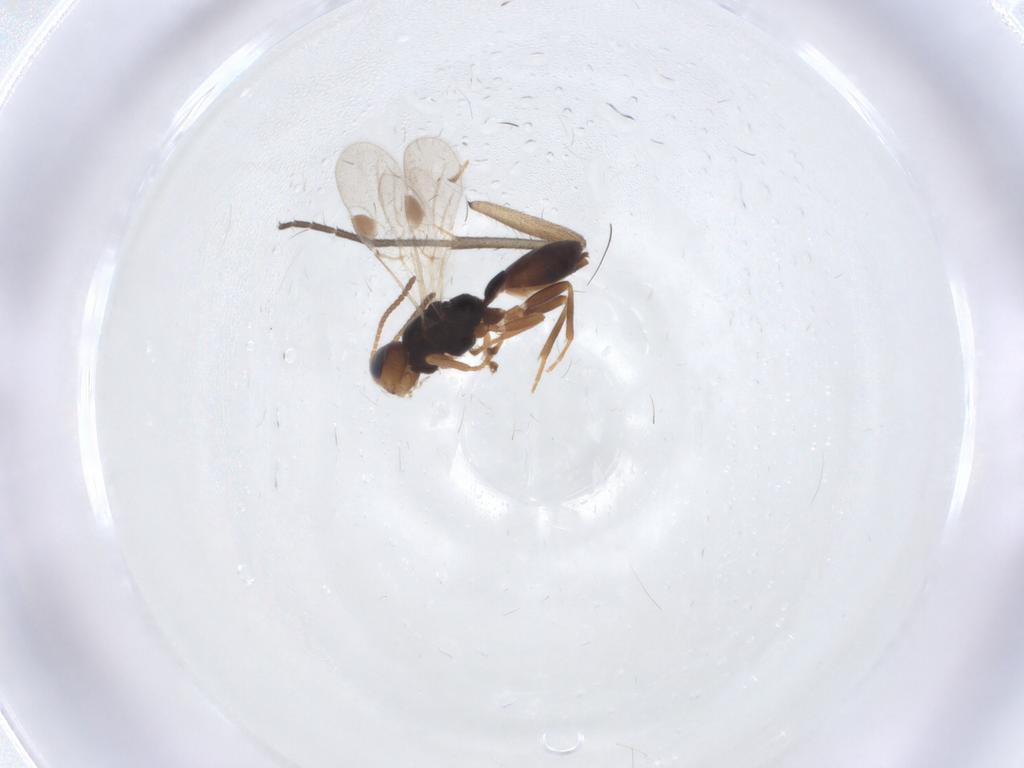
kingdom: Animalia
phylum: Arthropoda
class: Insecta
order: Hymenoptera
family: Braconidae
